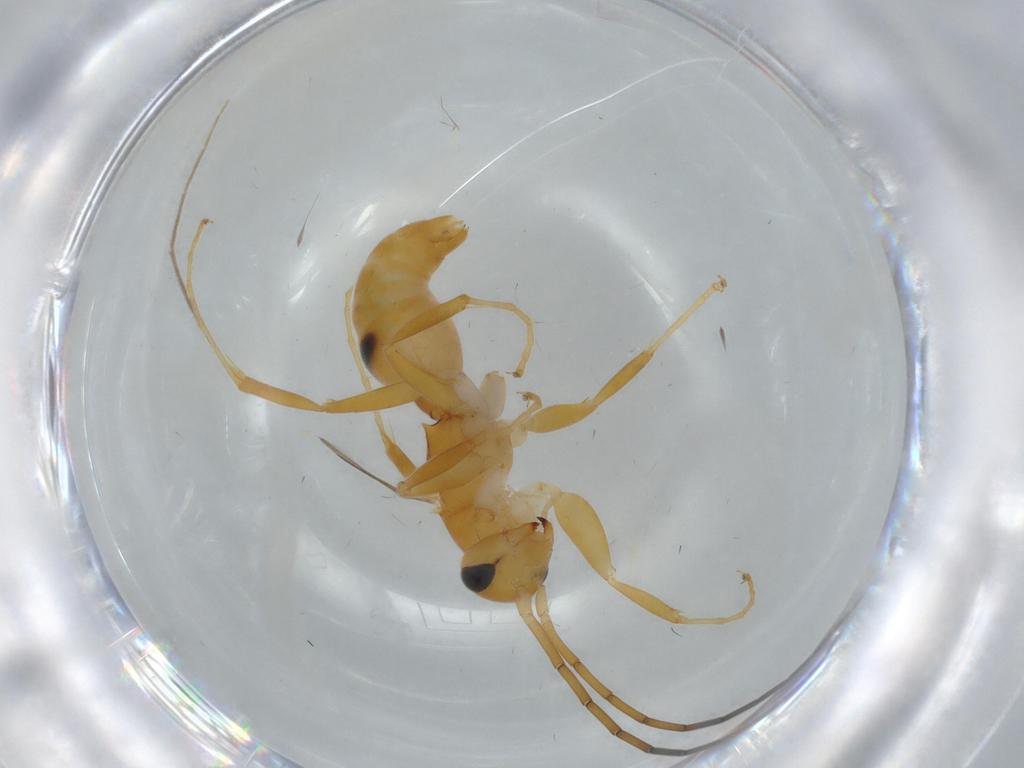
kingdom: Animalia
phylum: Arthropoda
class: Insecta
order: Hymenoptera
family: Rhopalosomatidae
